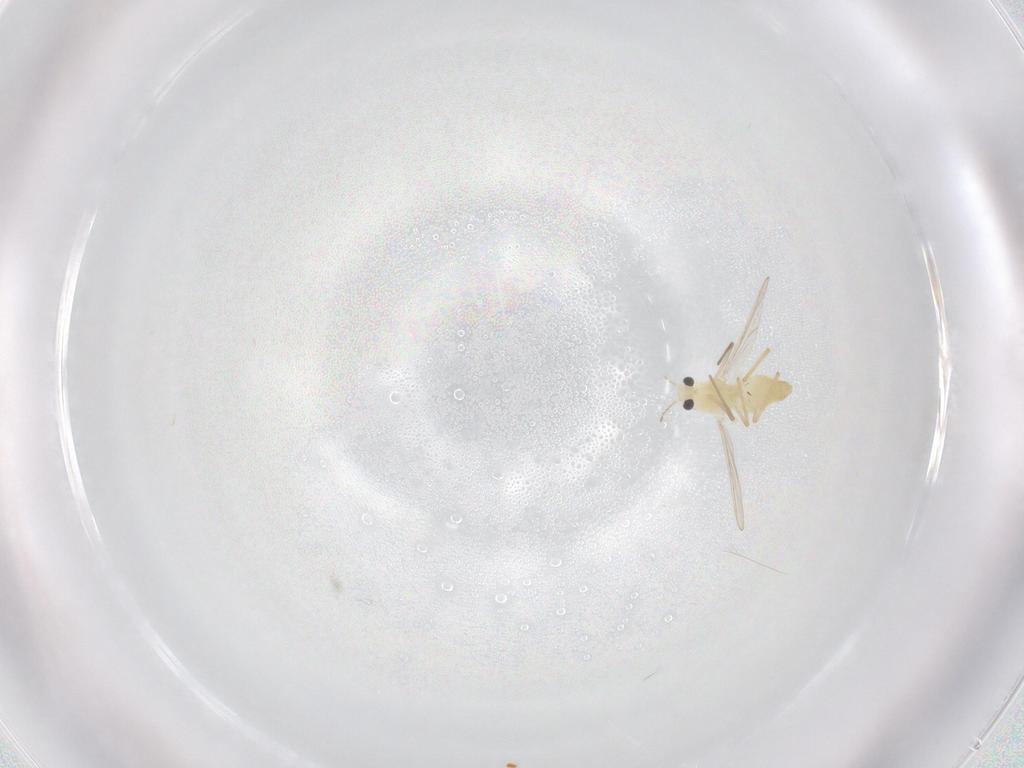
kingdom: Animalia
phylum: Arthropoda
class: Insecta
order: Diptera
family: Chironomidae
